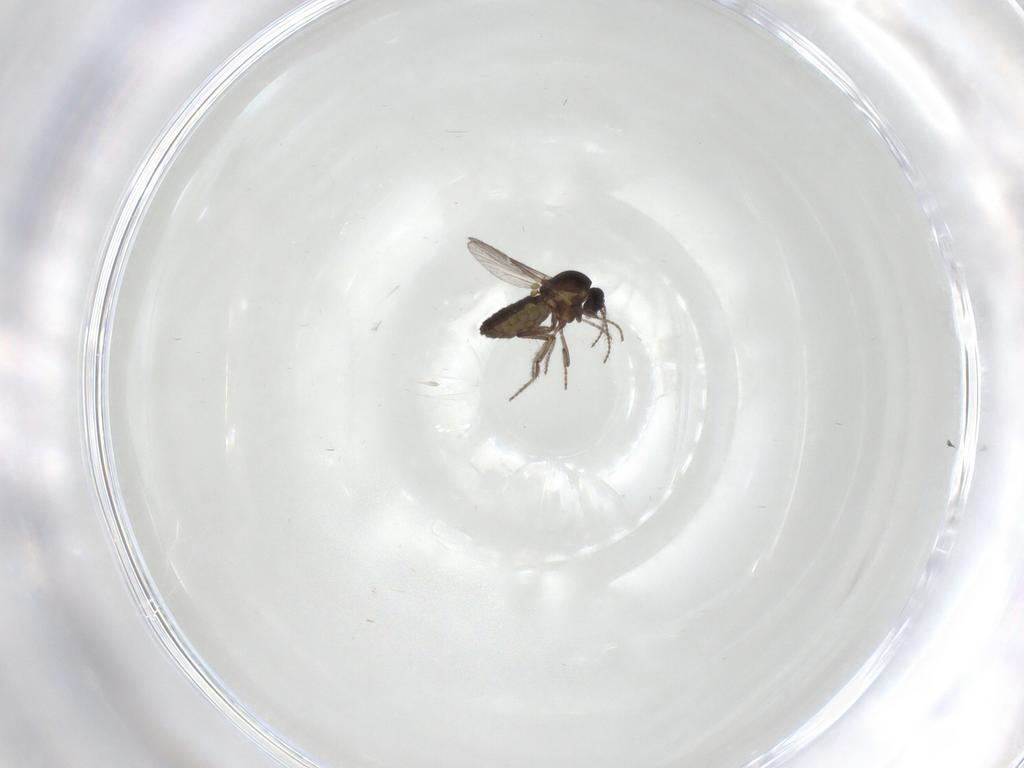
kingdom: Animalia
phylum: Arthropoda
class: Insecta
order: Diptera
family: Ceratopogonidae
